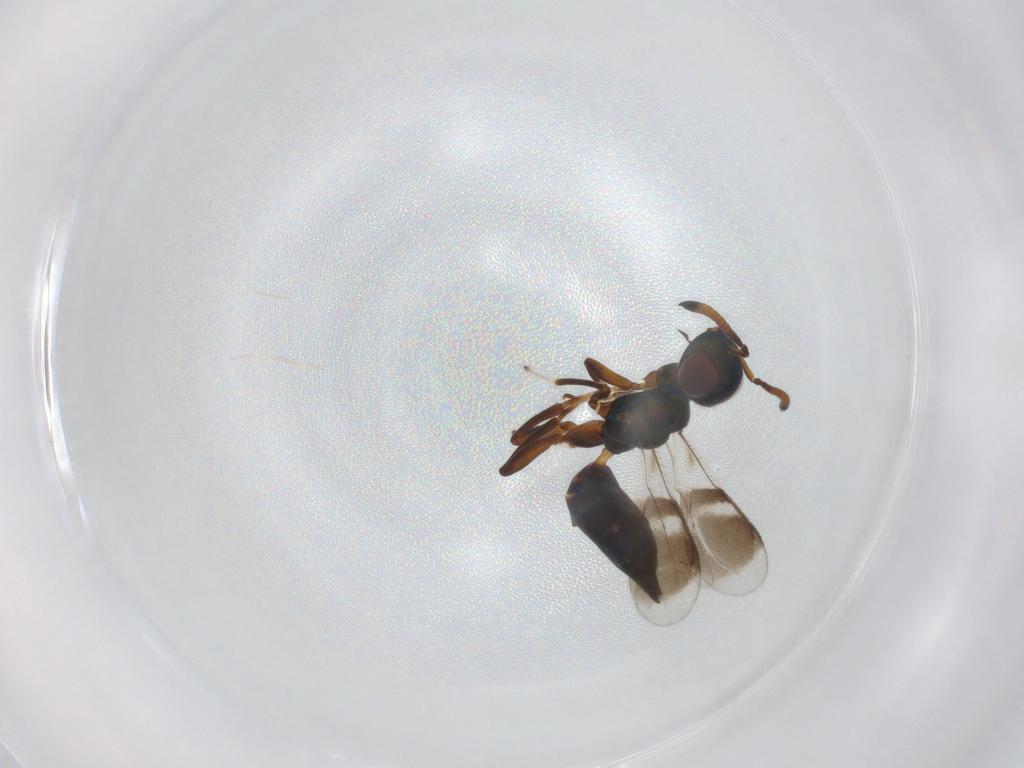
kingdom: Animalia
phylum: Arthropoda
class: Insecta
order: Hymenoptera
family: Cleonyminae
